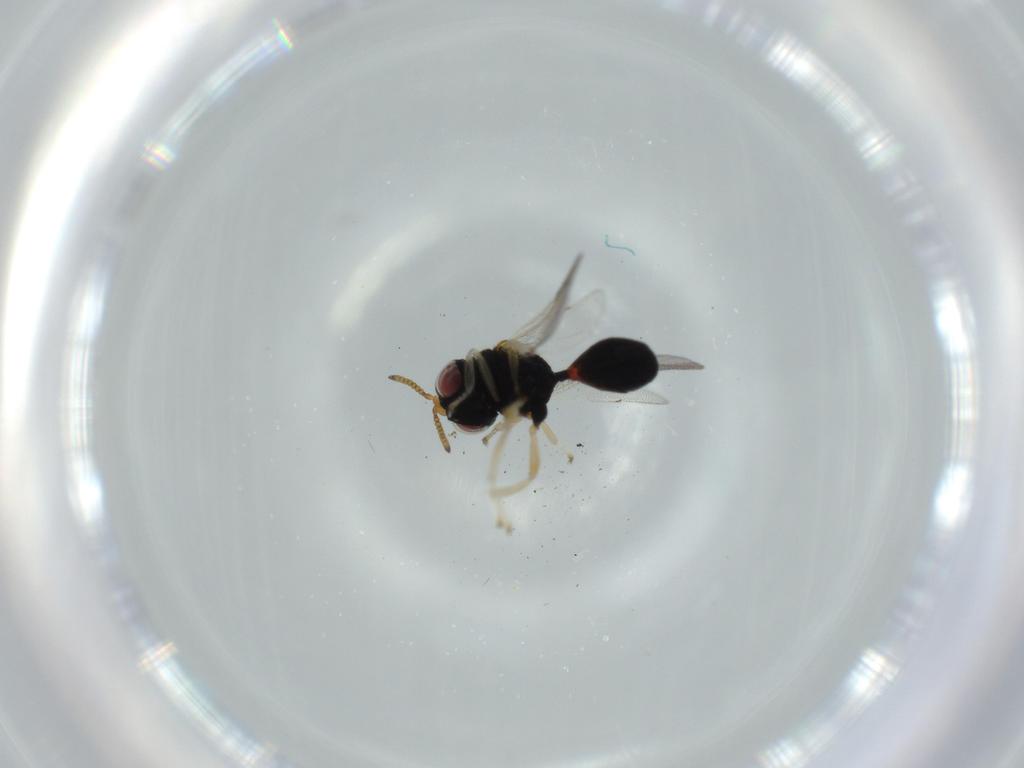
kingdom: Animalia
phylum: Arthropoda
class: Insecta
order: Hymenoptera
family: Eurytomidae
